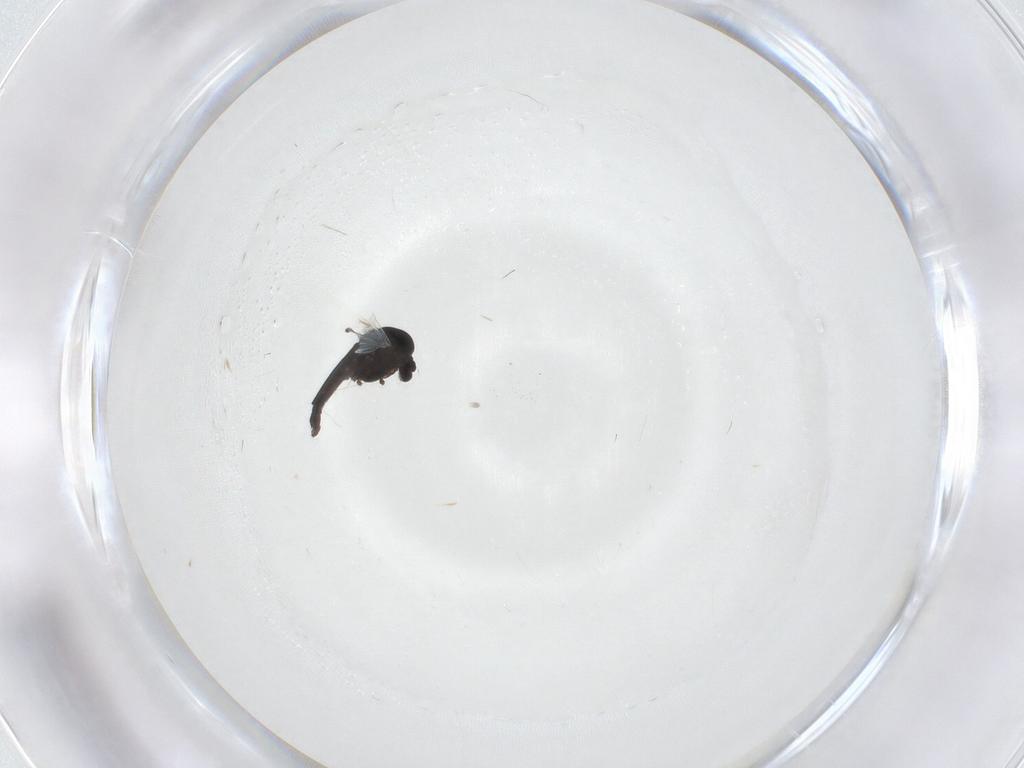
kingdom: Animalia
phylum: Arthropoda
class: Insecta
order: Diptera
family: Chironomidae
